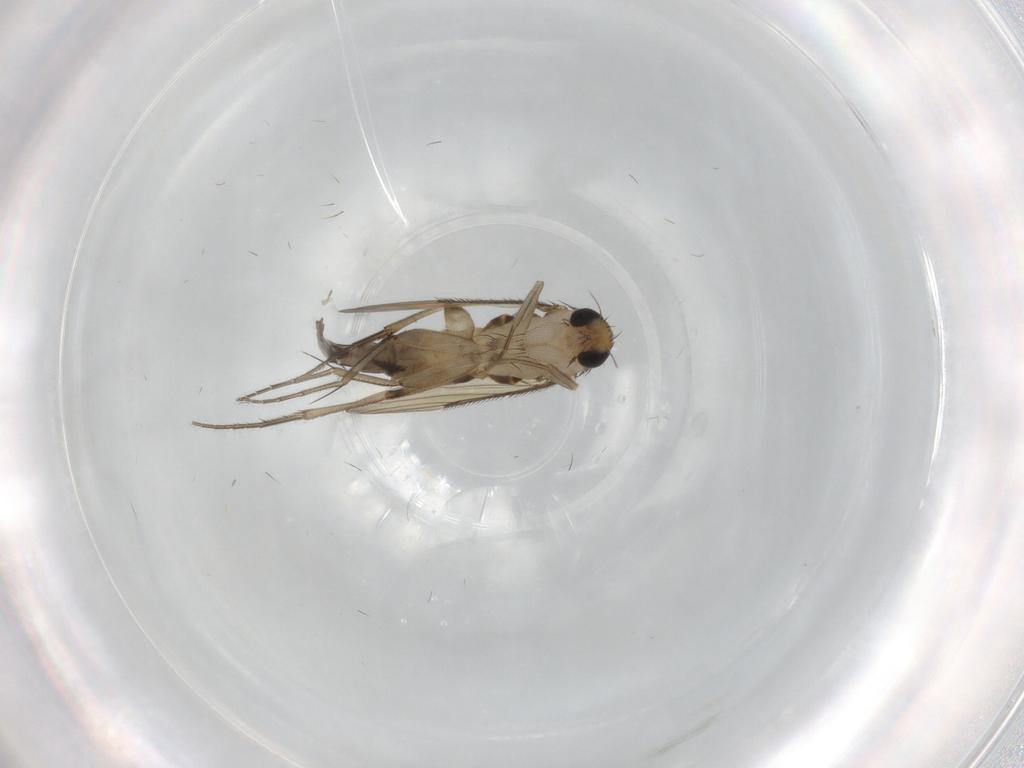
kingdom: Animalia
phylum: Arthropoda
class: Insecta
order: Diptera
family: Phoridae
